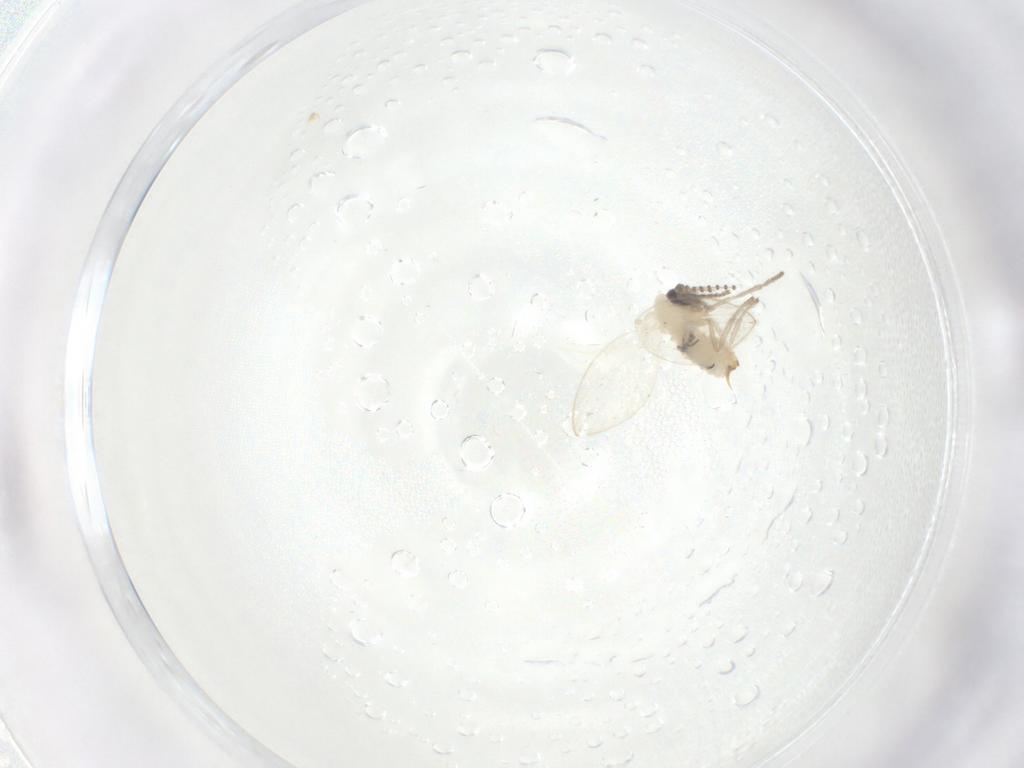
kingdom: Animalia
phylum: Arthropoda
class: Insecta
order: Diptera
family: Psychodidae
